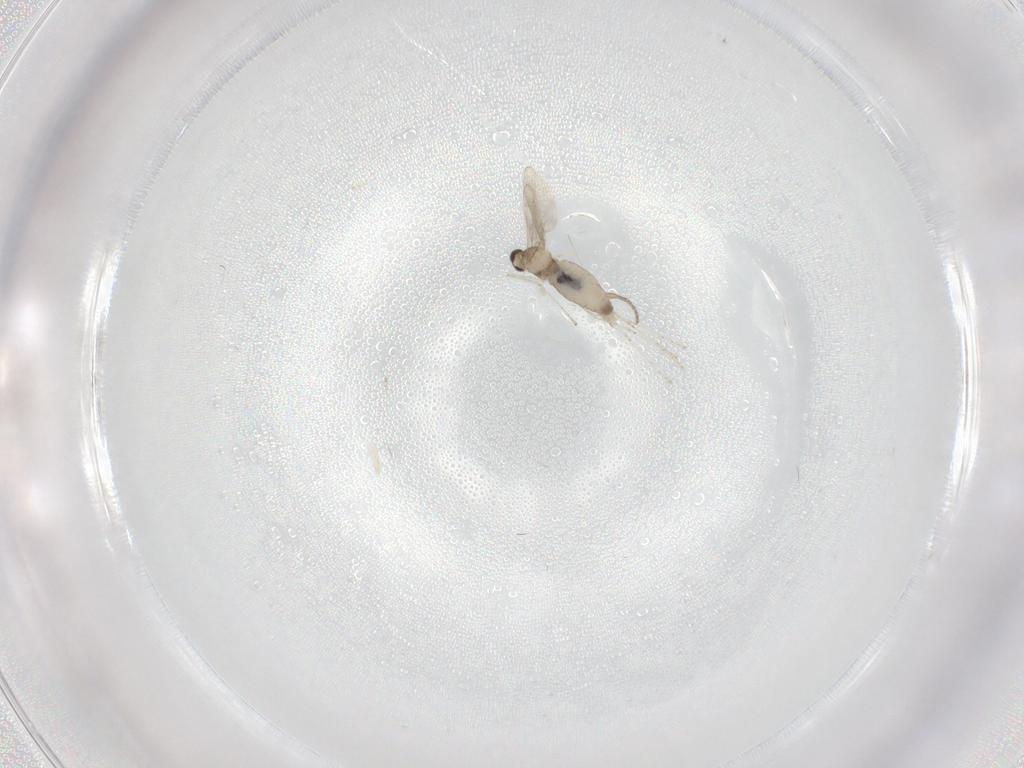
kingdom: Animalia
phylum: Arthropoda
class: Insecta
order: Diptera
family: Phoridae
